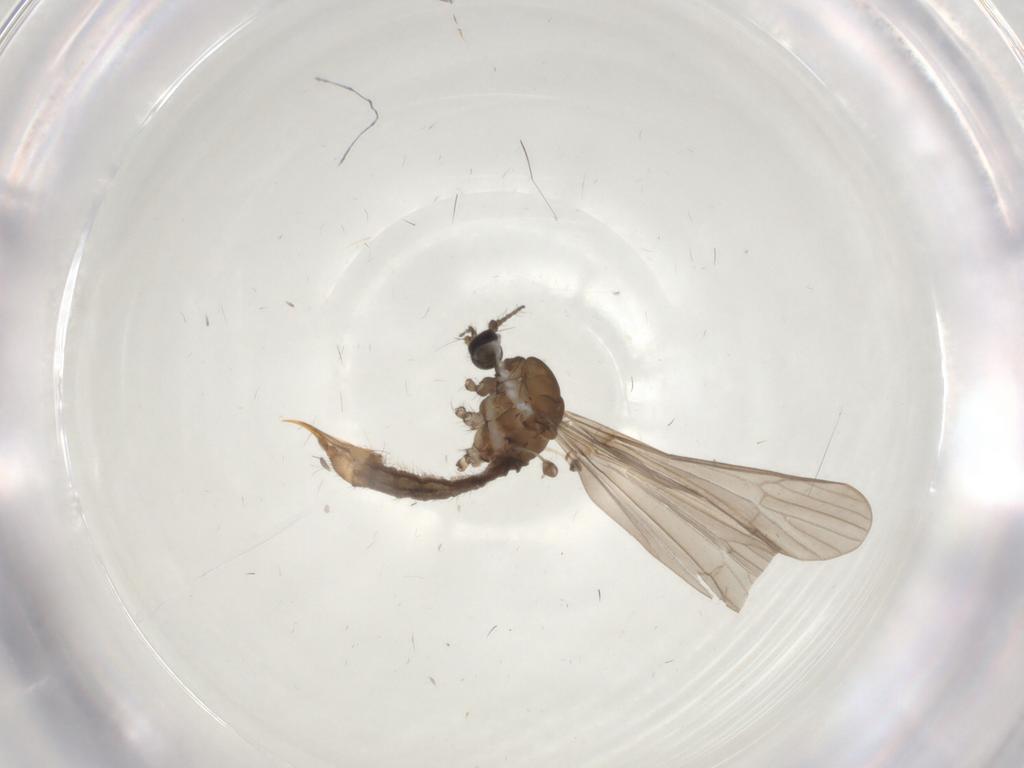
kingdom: Animalia
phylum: Arthropoda
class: Insecta
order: Diptera
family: Limoniidae
